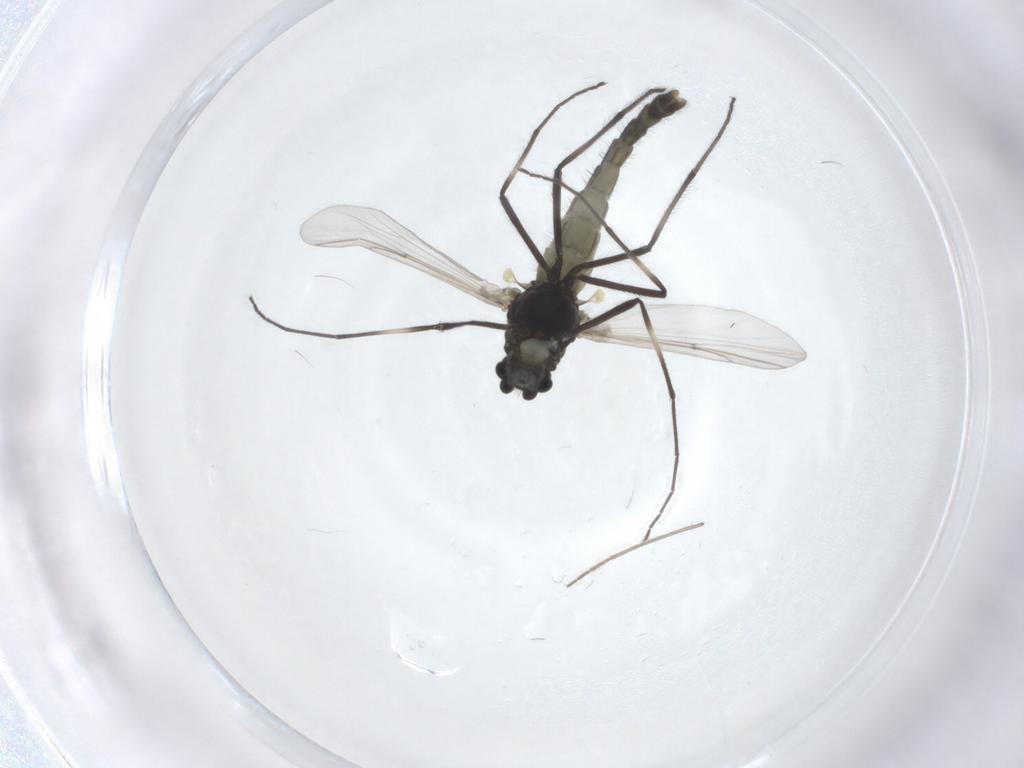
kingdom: Animalia
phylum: Arthropoda
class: Insecta
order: Diptera
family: Chironomidae
